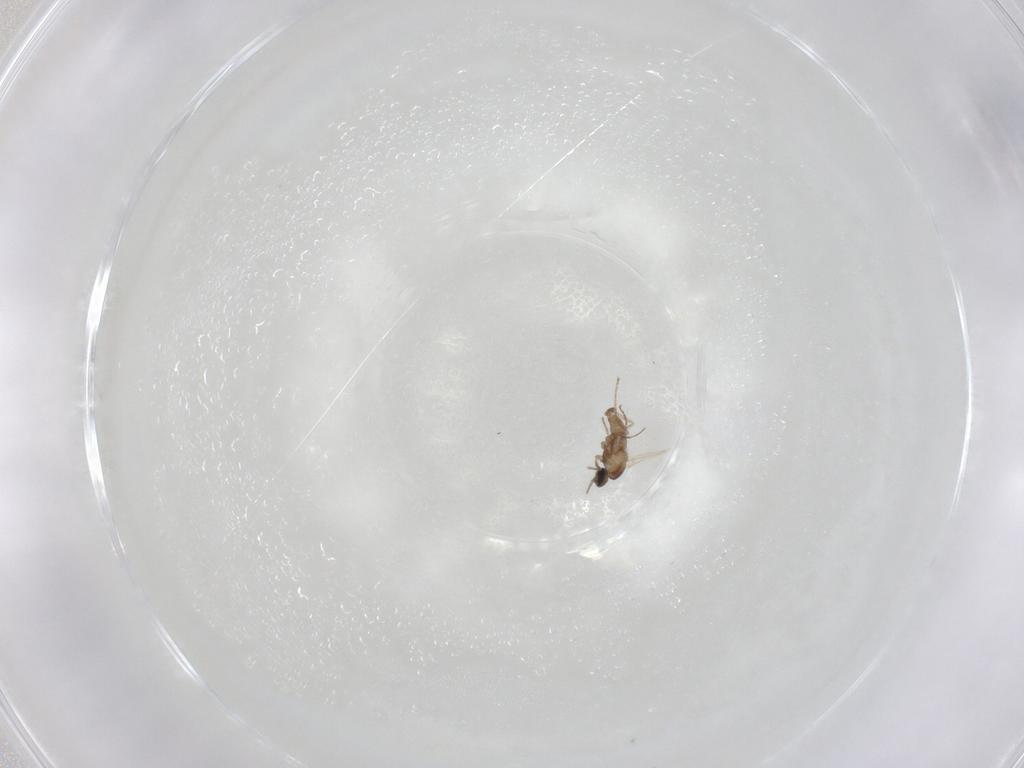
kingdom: Animalia
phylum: Arthropoda
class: Insecta
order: Diptera
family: Cecidomyiidae
